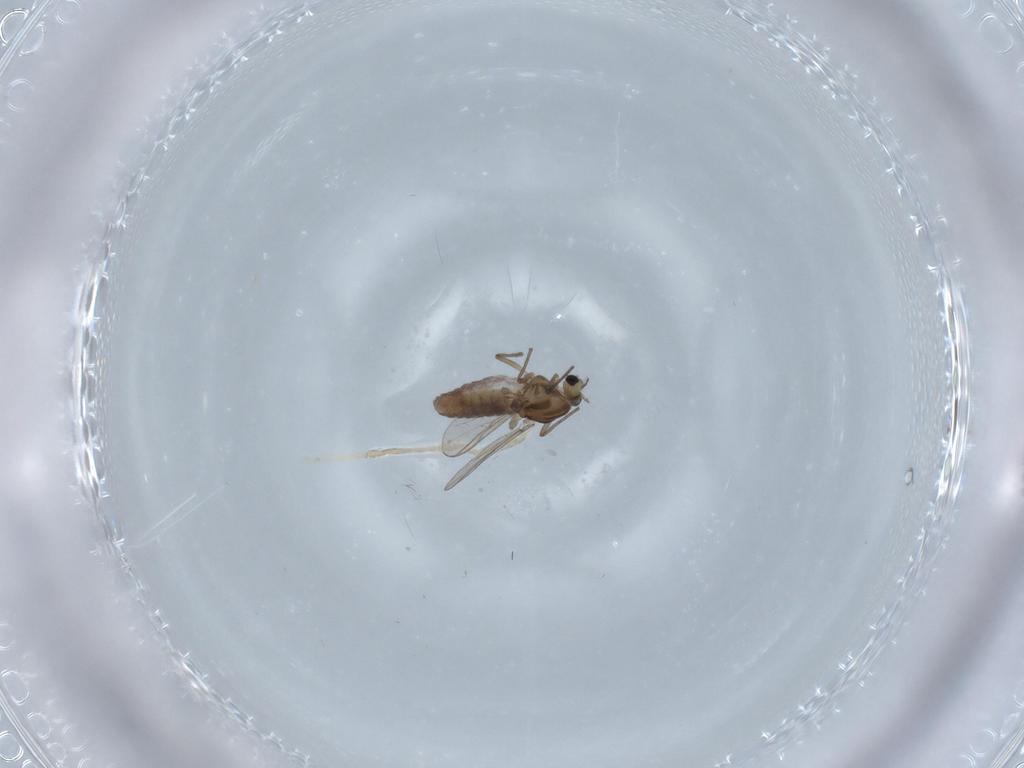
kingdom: Animalia
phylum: Arthropoda
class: Insecta
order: Diptera
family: Chironomidae
